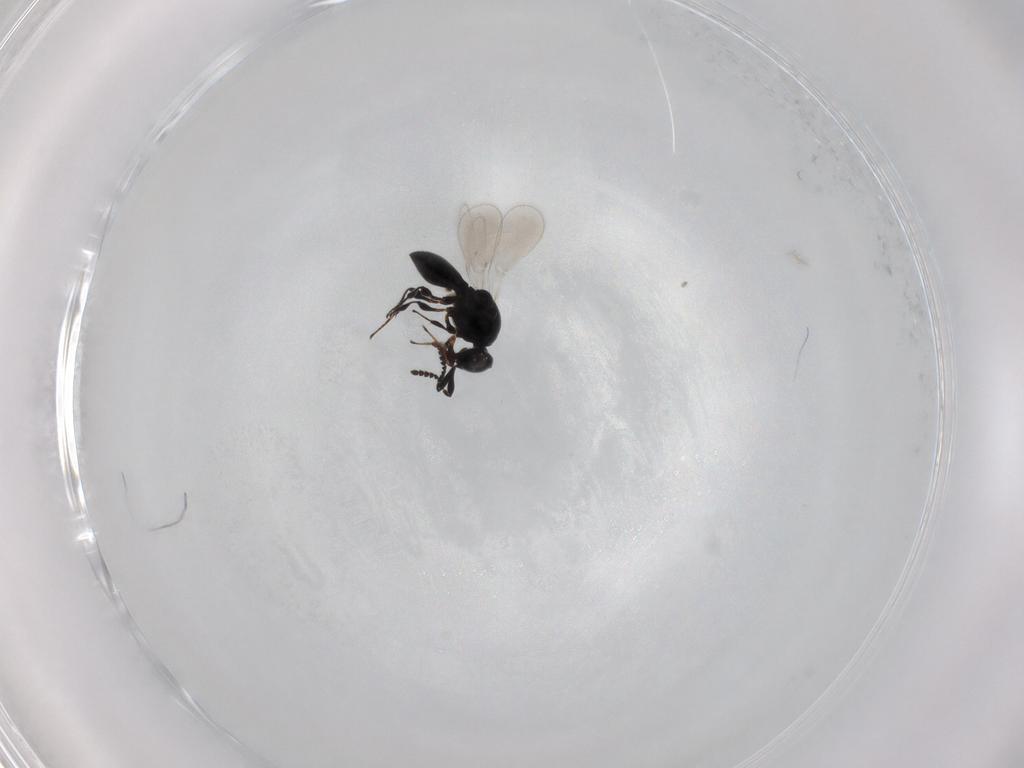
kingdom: Animalia
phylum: Arthropoda
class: Insecta
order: Hymenoptera
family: Platygastridae
